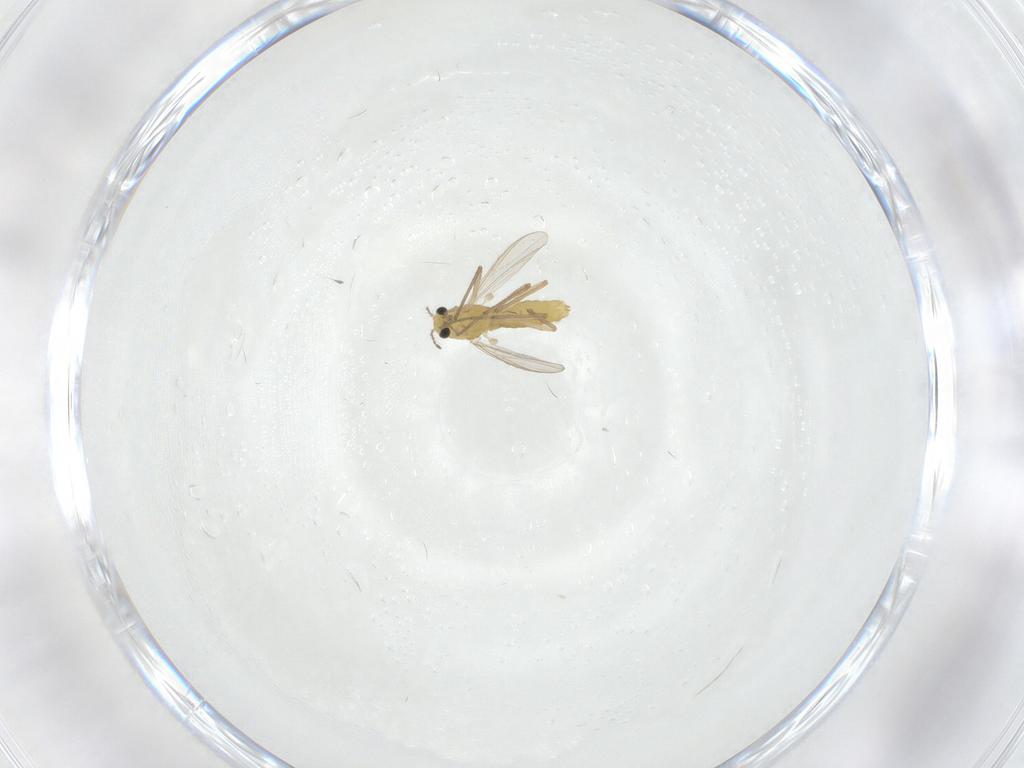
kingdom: Animalia
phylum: Arthropoda
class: Insecta
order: Diptera
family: Chironomidae
